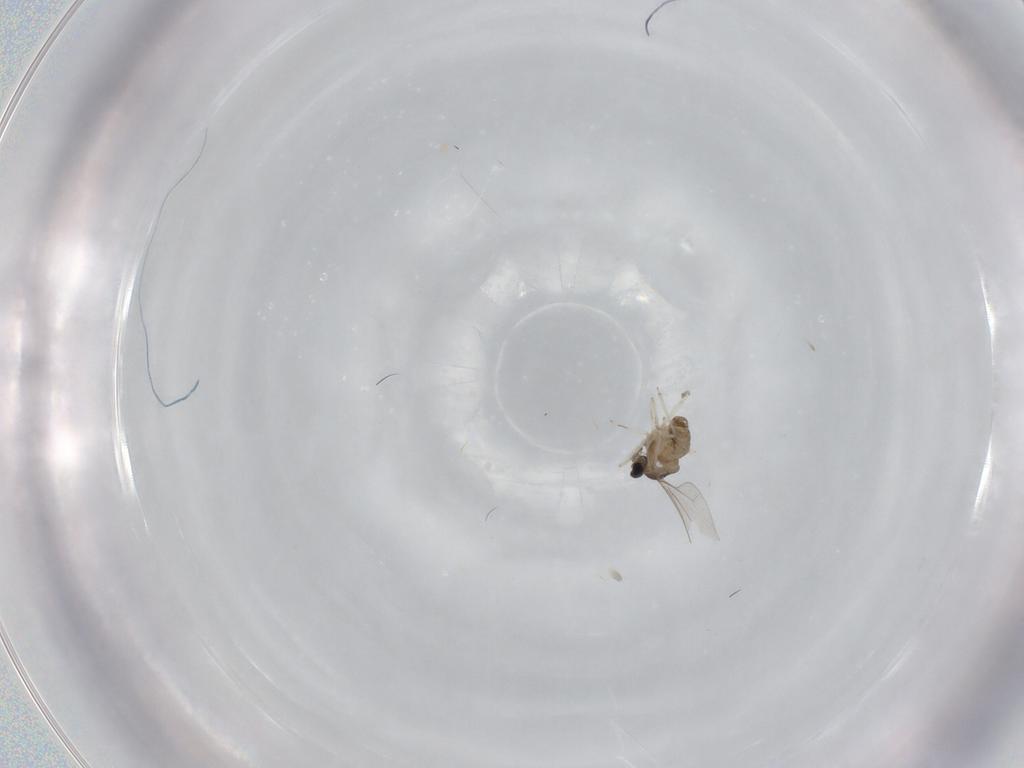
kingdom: Animalia
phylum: Arthropoda
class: Insecta
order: Diptera
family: Cecidomyiidae
